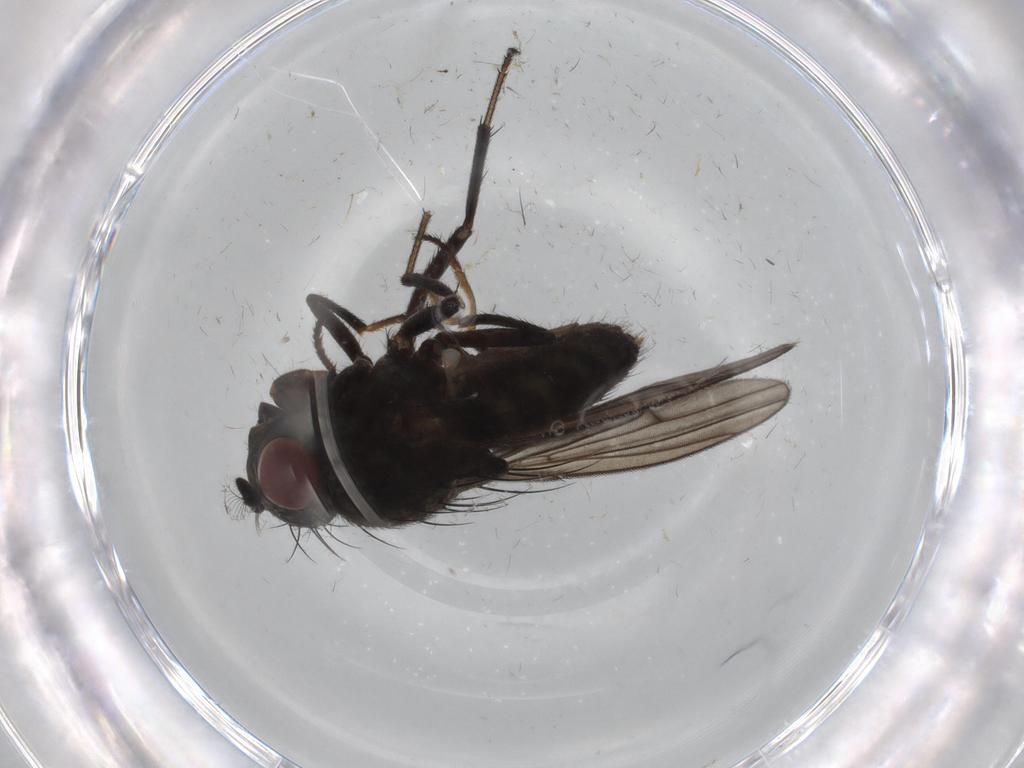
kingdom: Animalia
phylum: Arthropoda
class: Insecta
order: Diptera
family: Ephydridae
